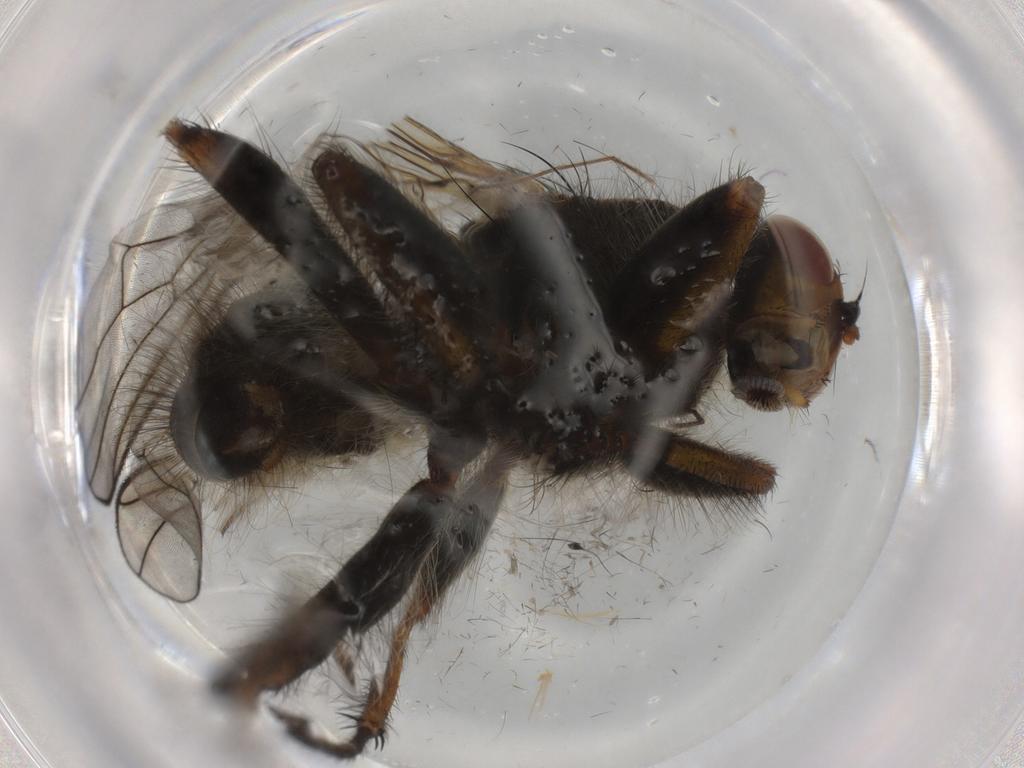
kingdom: Animalia
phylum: Arthropoda
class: Insecta
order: Diptera
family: Scathophagidae
